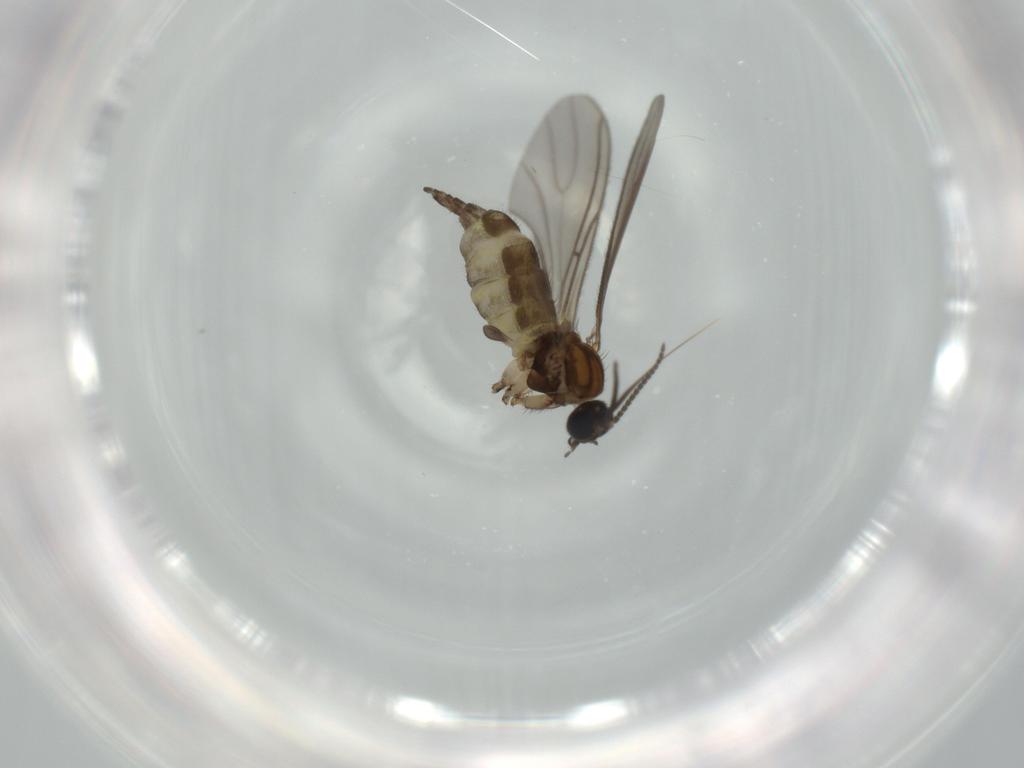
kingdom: Animalia
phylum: Arthropoda
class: Insecta
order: Diptera
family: Sciaridae
